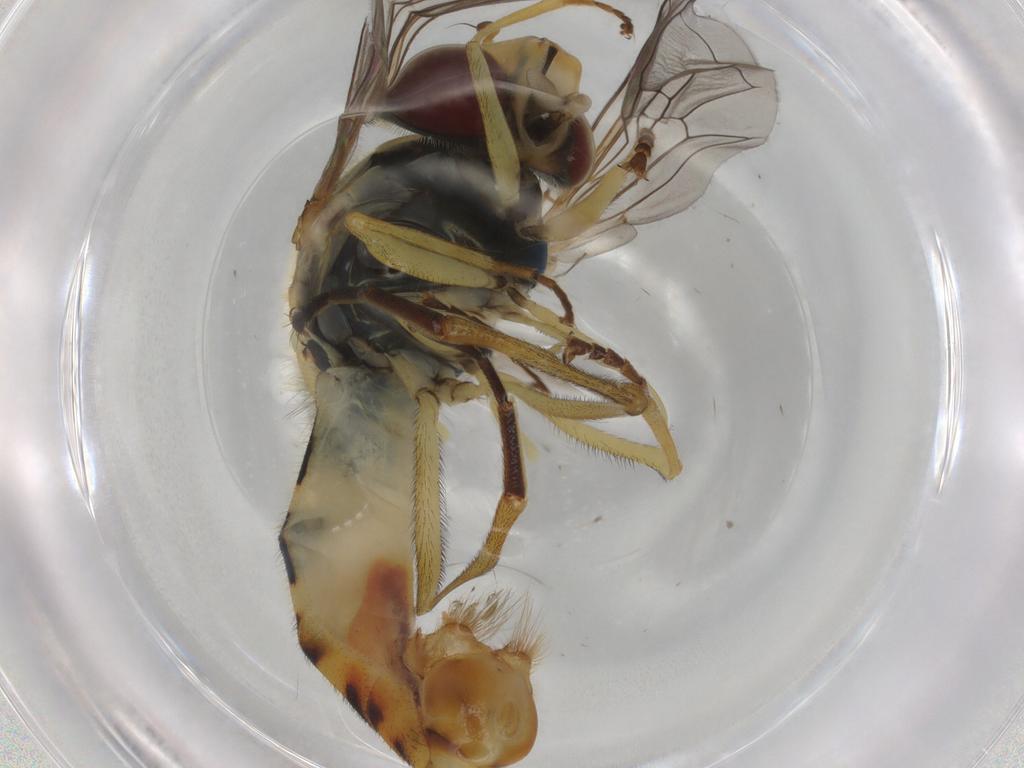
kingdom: Animalia
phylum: Arthropoda
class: Insecta
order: Diptera
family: Syrphidae
